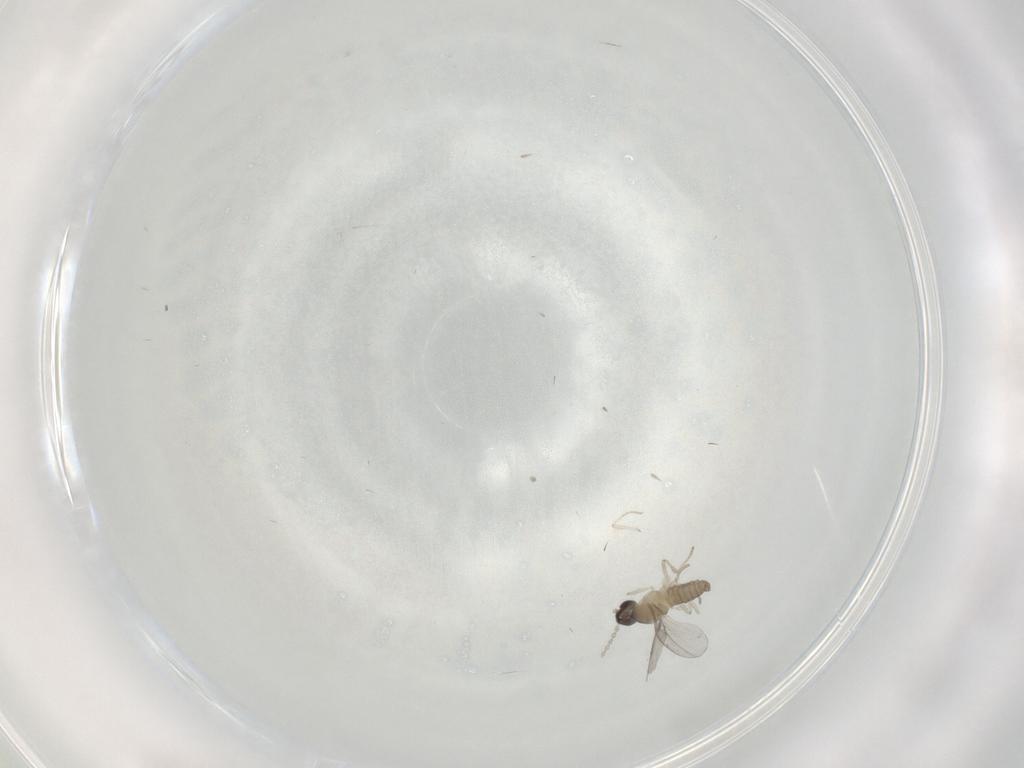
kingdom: Animalia
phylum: Arthropoda
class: Insecta
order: Diptera
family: Cecidomyiidae
